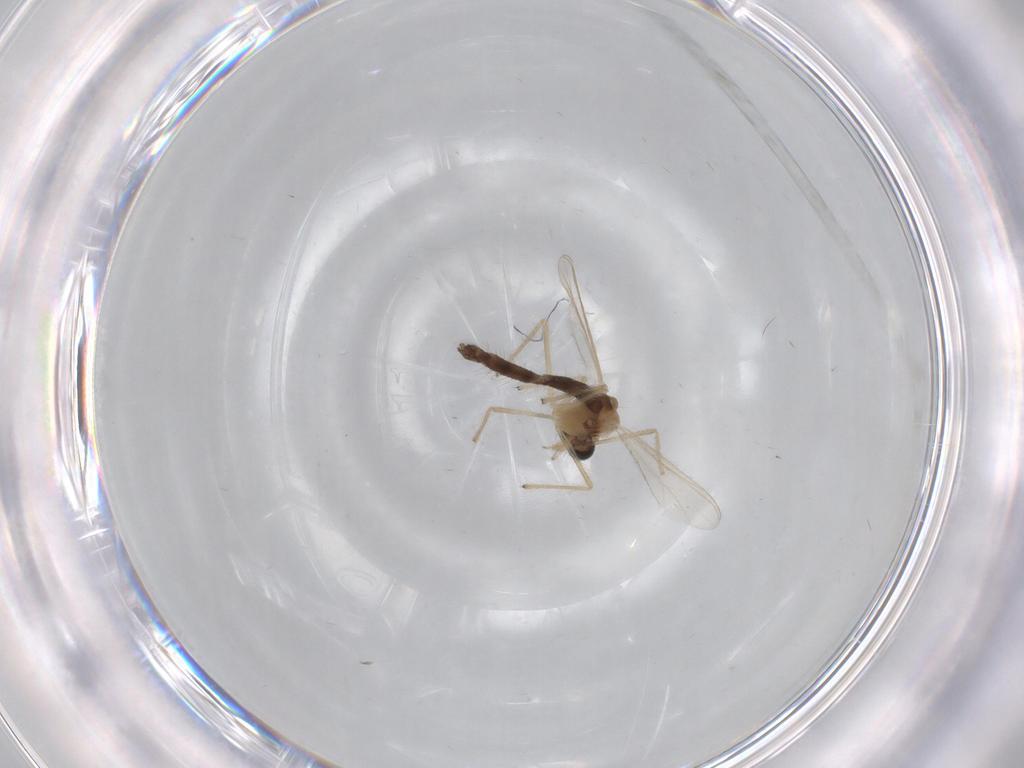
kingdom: Animalia
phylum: Arthropoda
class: Insecta
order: Diptera
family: Chironomidae
